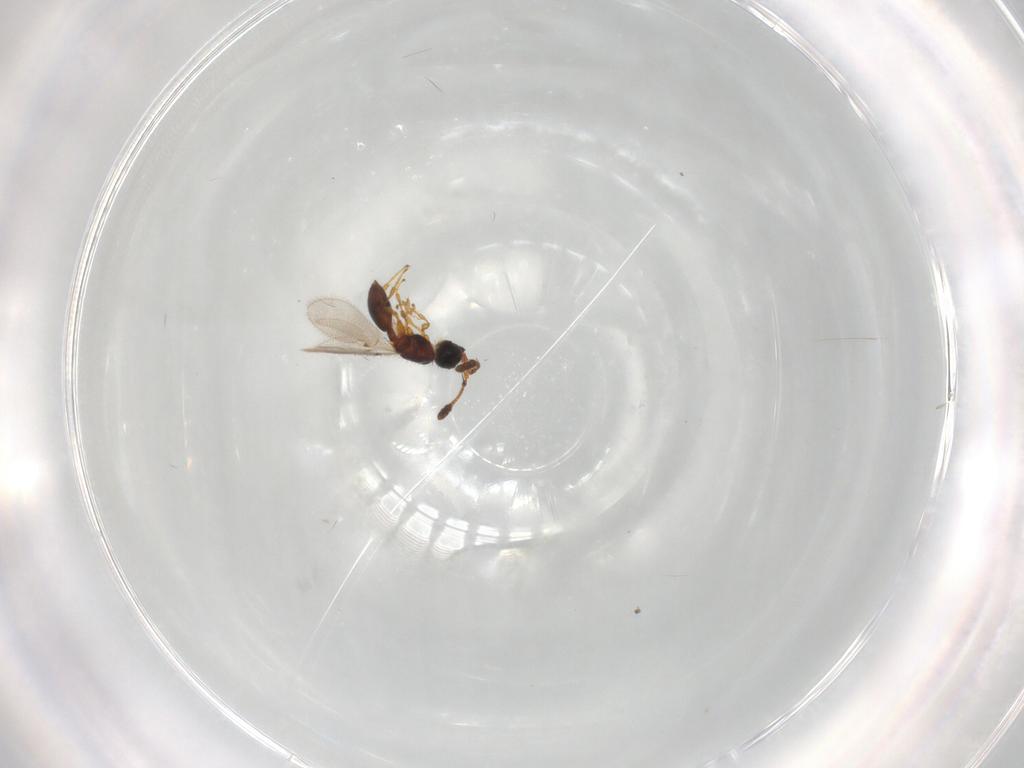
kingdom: Animalia
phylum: Arthropoda
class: Insecta
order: Hymenoptera
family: Diapriidae
